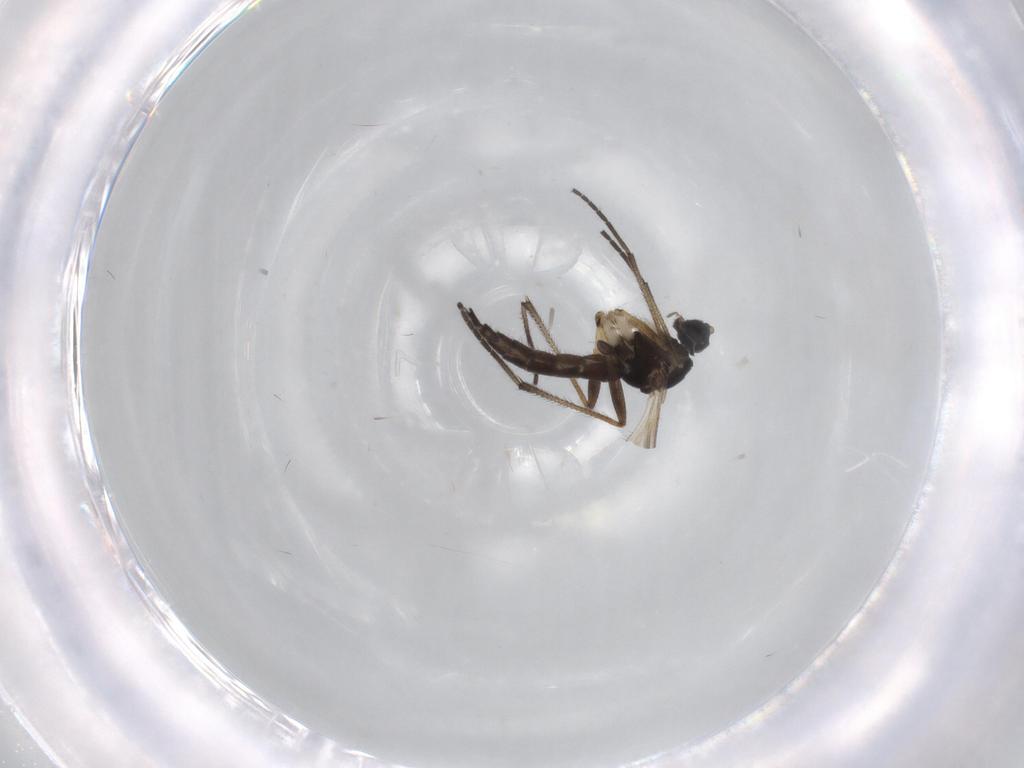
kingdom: Animalia
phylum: Arthropoda
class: Insecta
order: Diptera
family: Sciaridae
